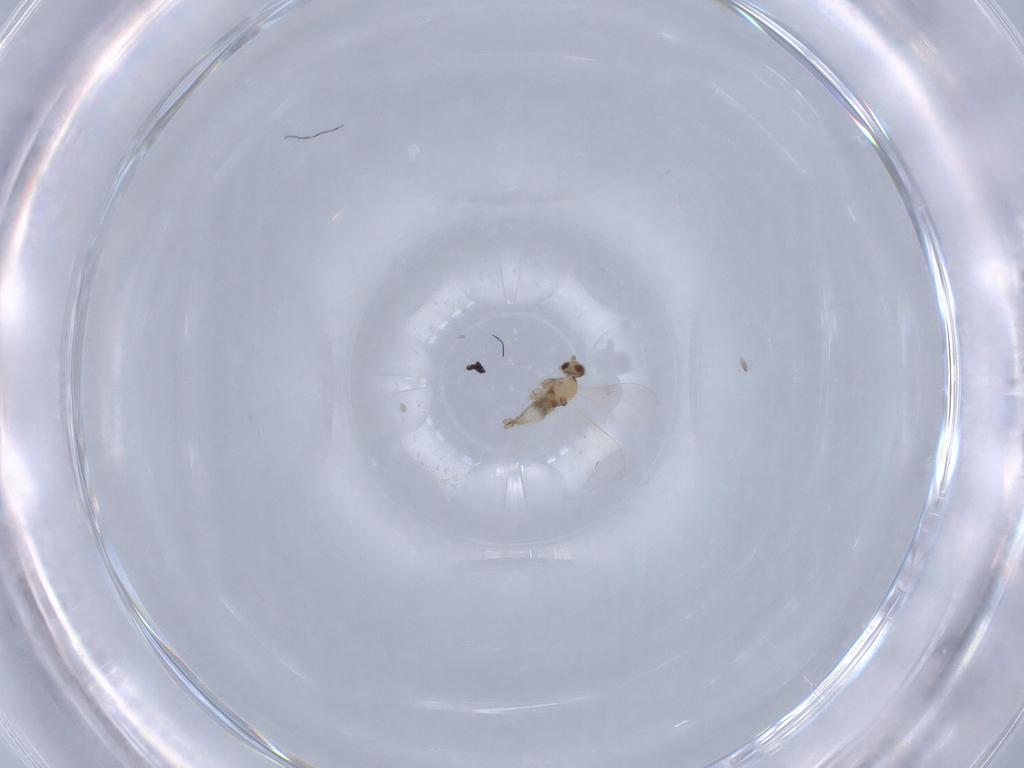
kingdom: Animalia
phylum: Arthropoda
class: Insecta
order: Diptera
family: Cecidomyiidae
